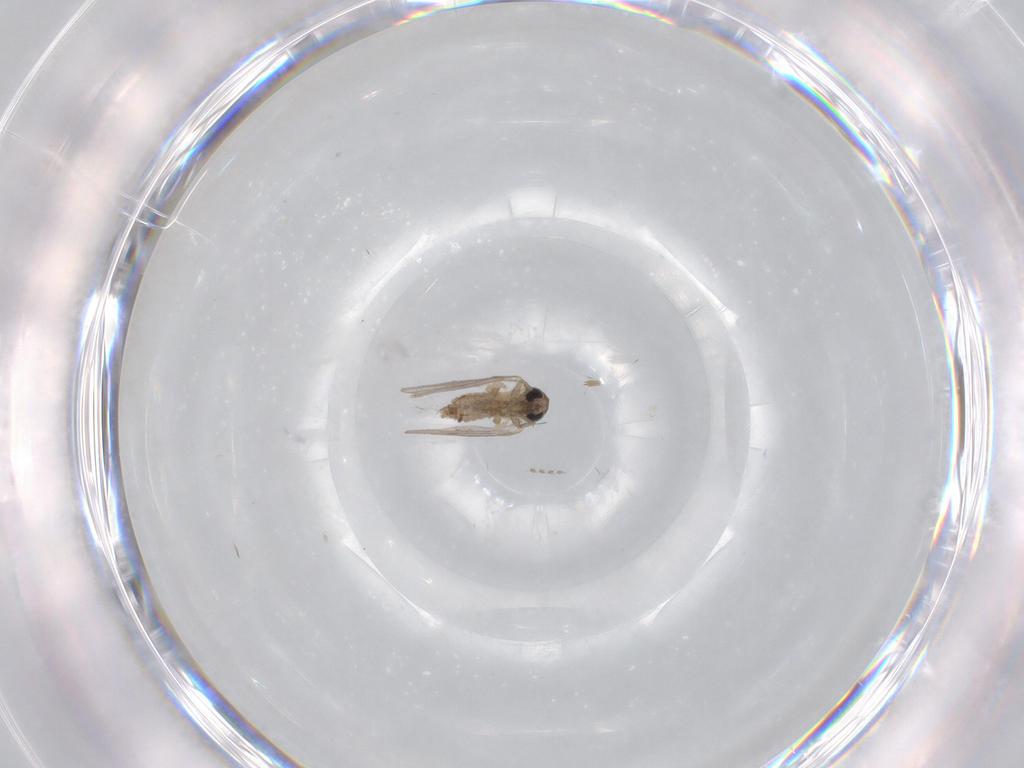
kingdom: Animalia
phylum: Arthropoda
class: Insecta
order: Diptera
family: Psychodidae
